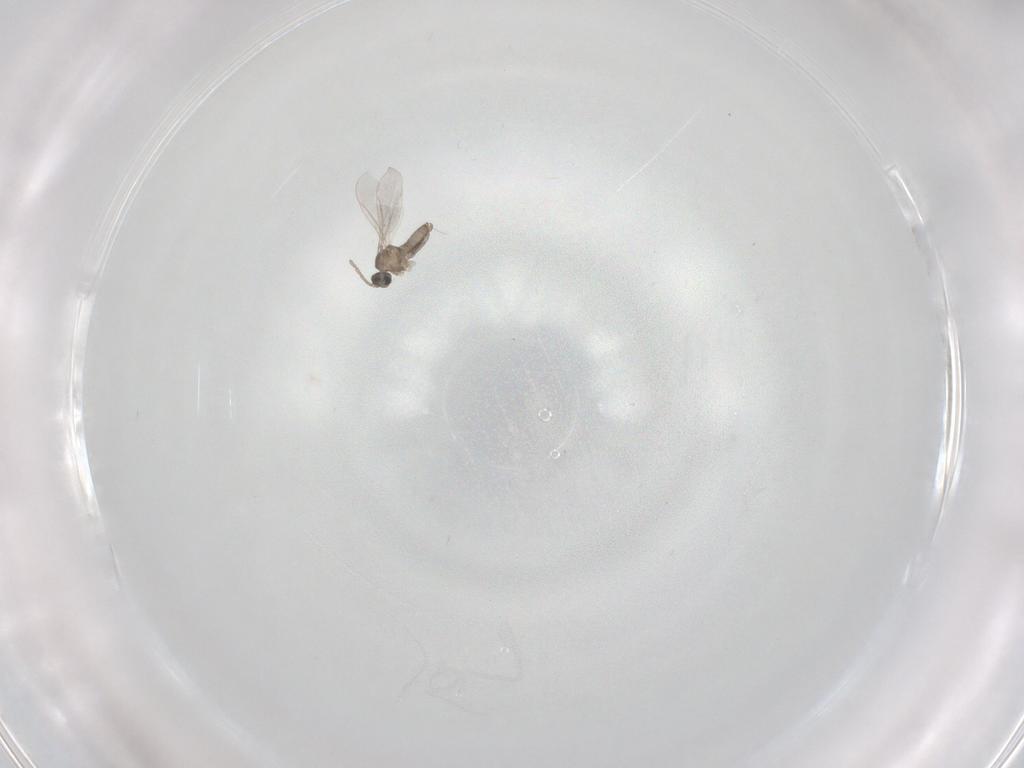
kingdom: Animalia
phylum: Arthropoda
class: Insecta
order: Diptera
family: Cecidomyiidae
